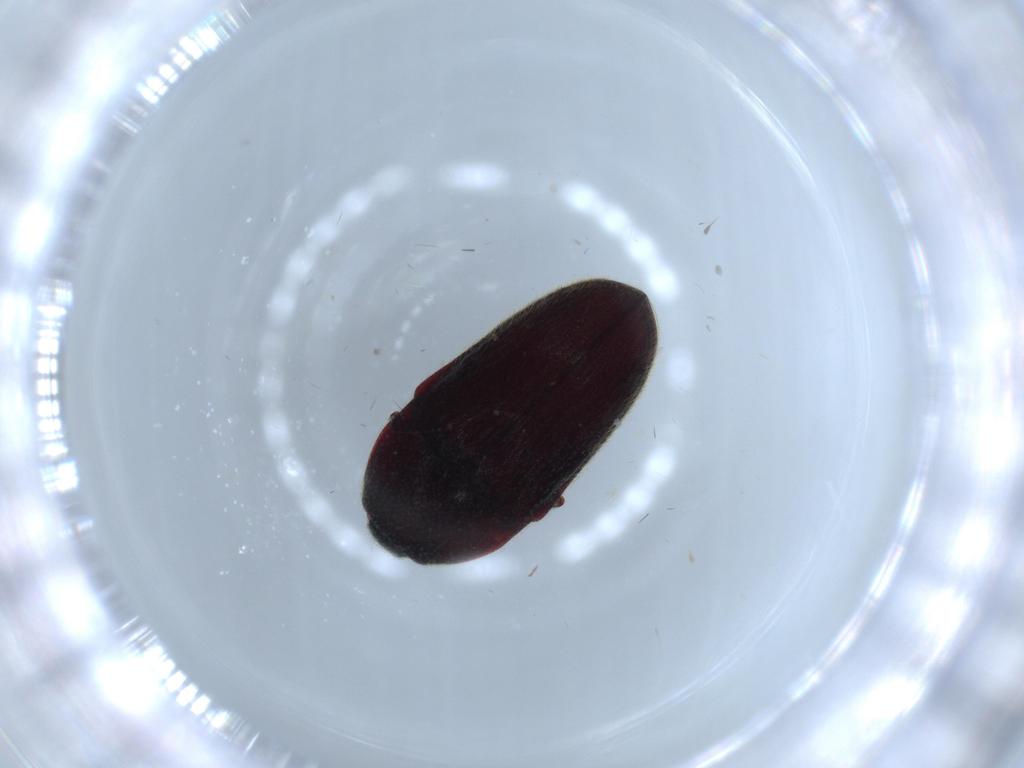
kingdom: Animalia
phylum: Arthropoda
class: Insecta
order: Coleoptera
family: Throscidae
